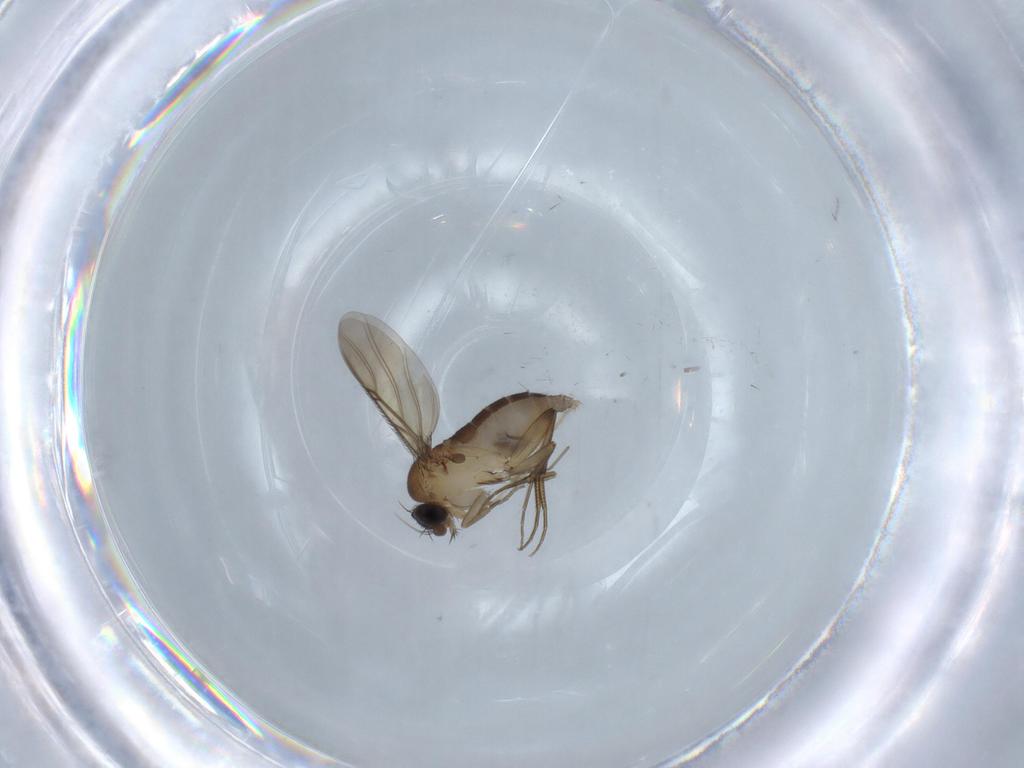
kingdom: Animalia
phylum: Arthropoda
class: Insecta
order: Diptera
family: Phoridae
